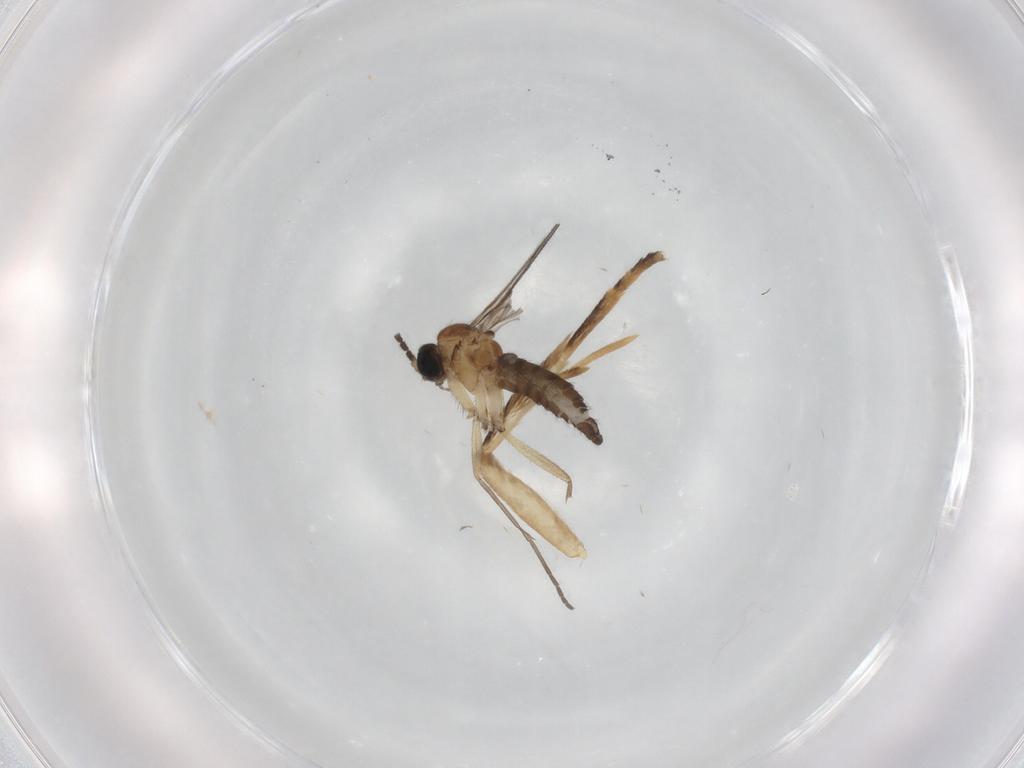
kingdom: Animalia
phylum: Arthropoda
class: Insecta
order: Diptera
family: Sciaridae
